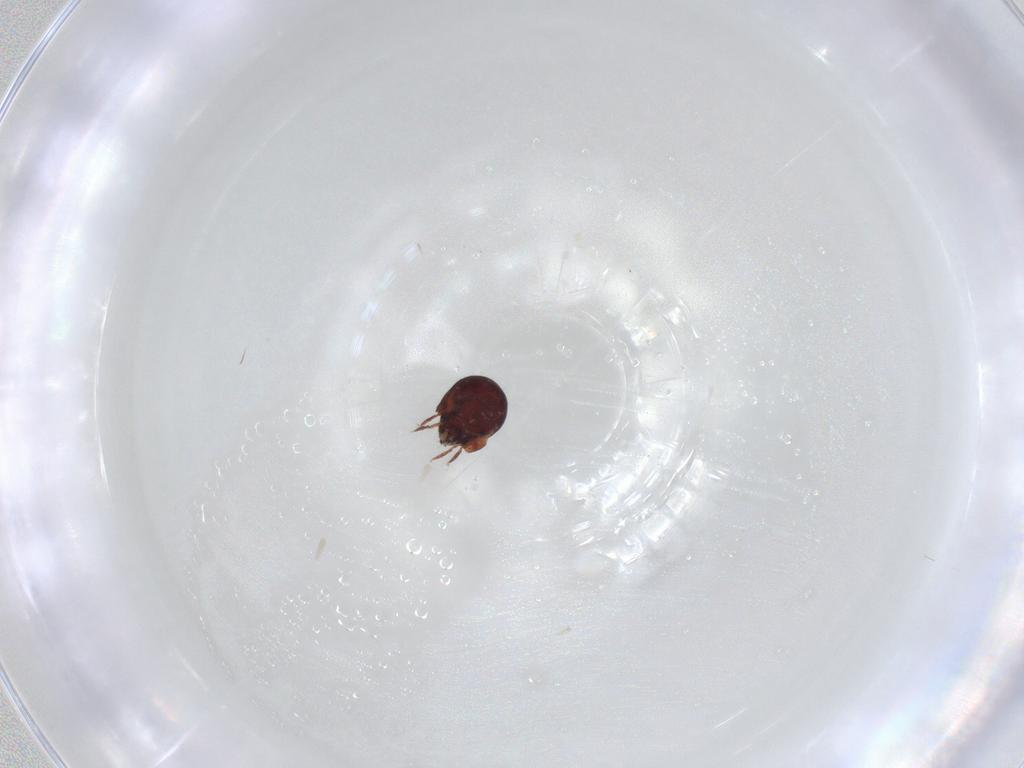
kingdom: Animalia
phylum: Arthropoda
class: Arachnida
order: Sarcoptiformes
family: Humerobatidae
